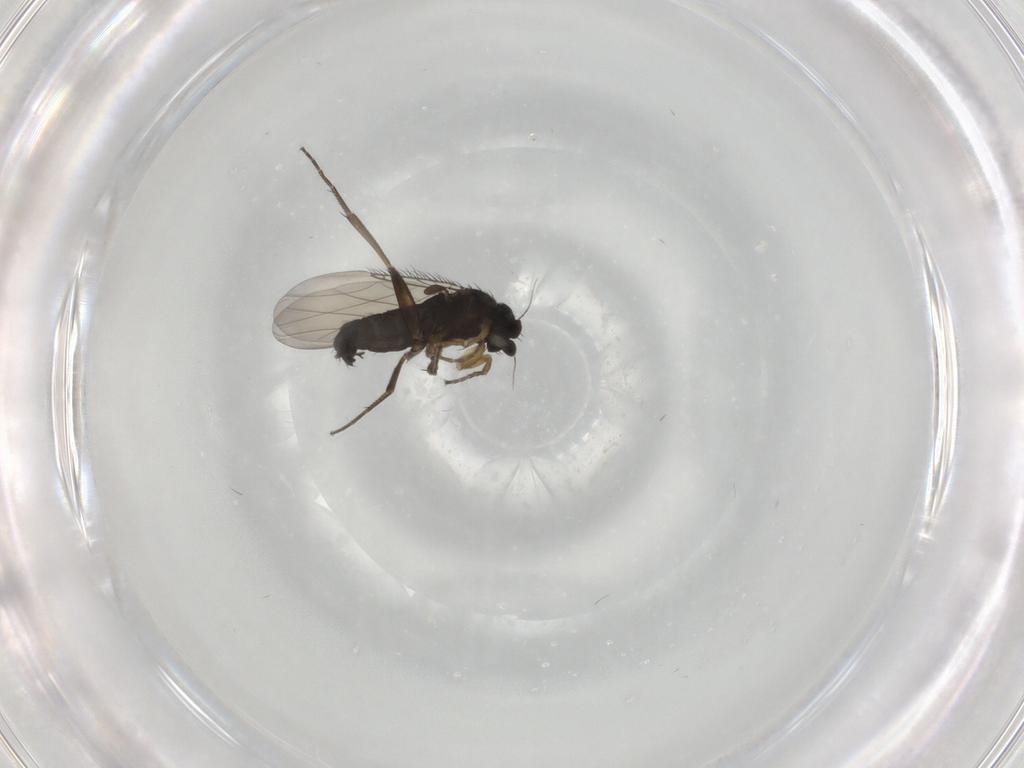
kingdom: Animalia
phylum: Arthropoda
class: Insecta
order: Diptera
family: Phoridae
